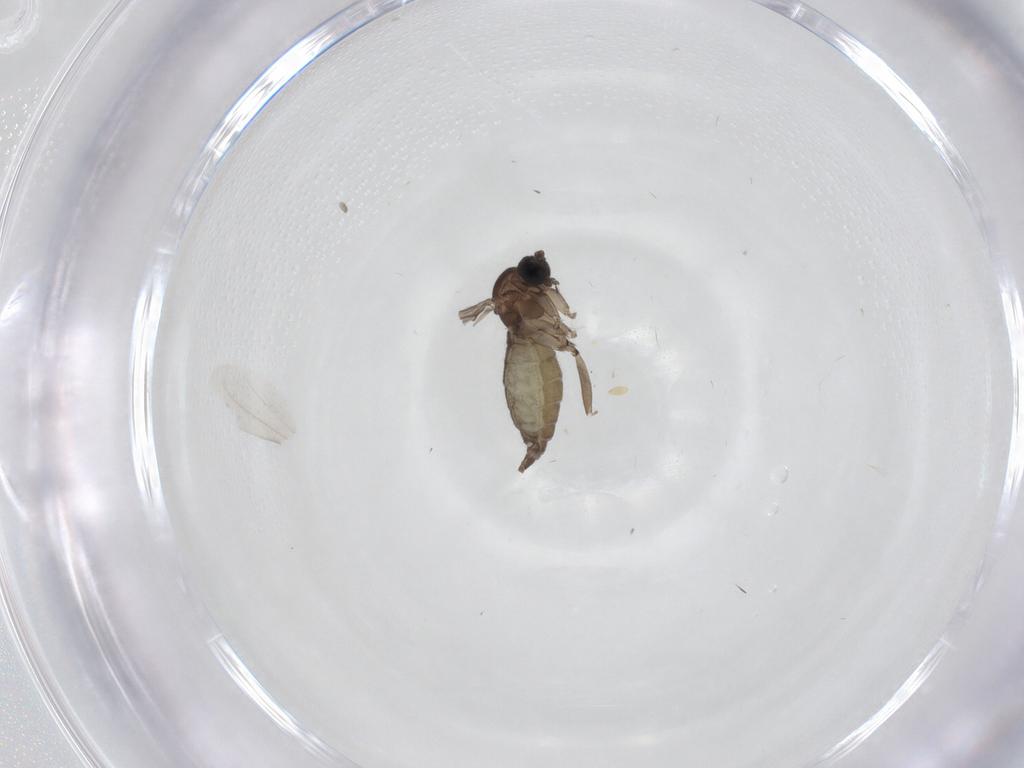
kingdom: Animalia
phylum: Arthropoda
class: Insecta
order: Diptera
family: Sciaridae
